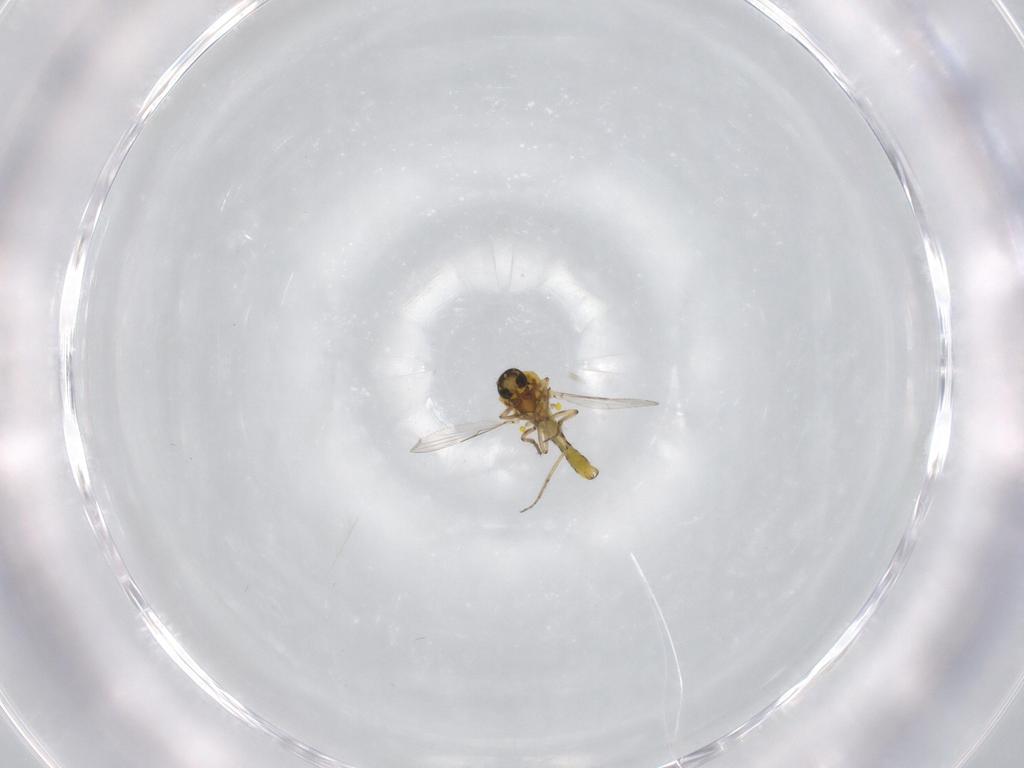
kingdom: Animalia
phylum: Arthropoda
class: Insecta
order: Diptera
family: Ceratopogonidae
